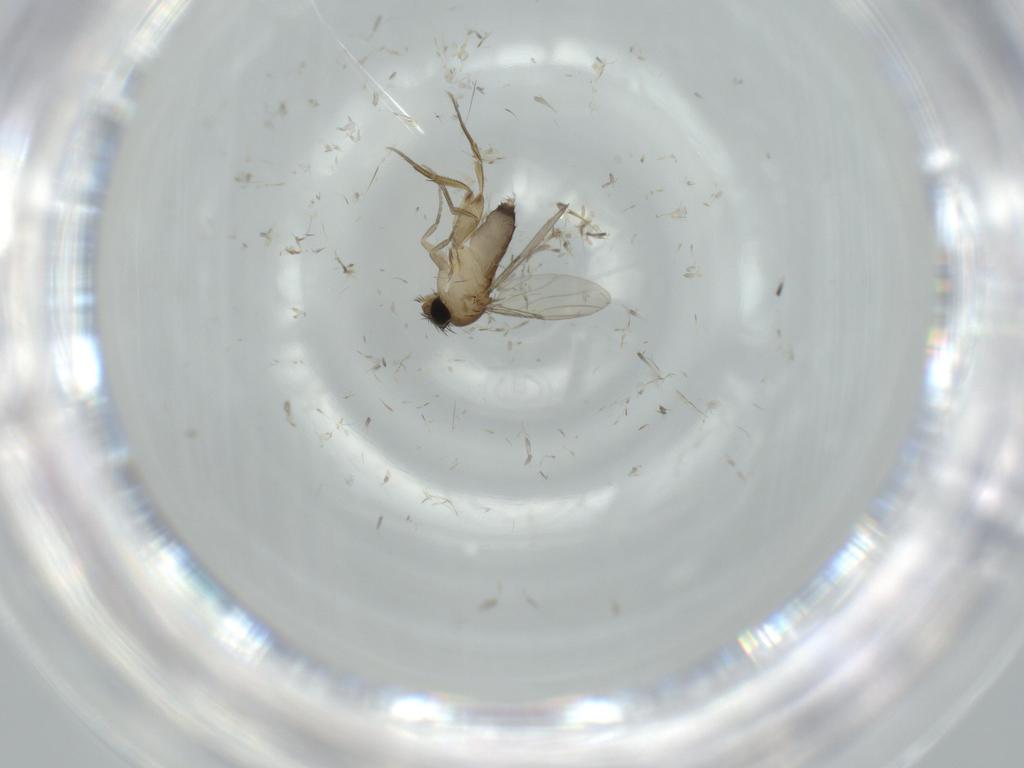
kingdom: Animalia
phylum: Arthropoda
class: Insecta
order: Diptera
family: Phoridae
